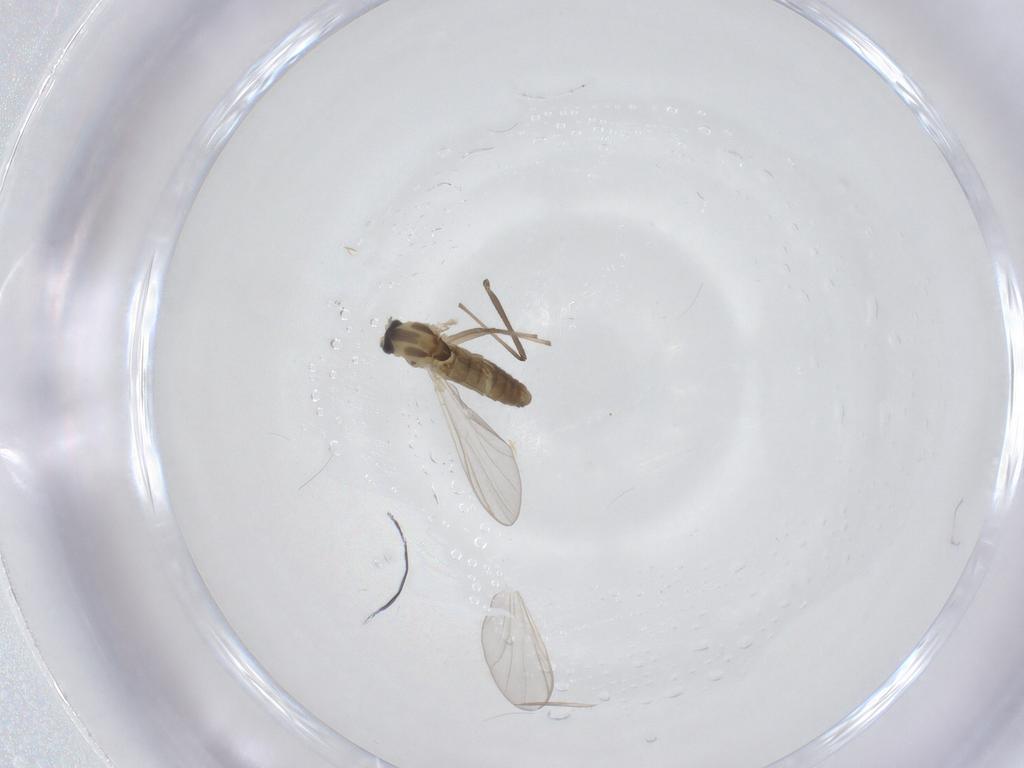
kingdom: Animalia
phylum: Arthropoda
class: Insecta
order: Diptera
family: Chironomidae
